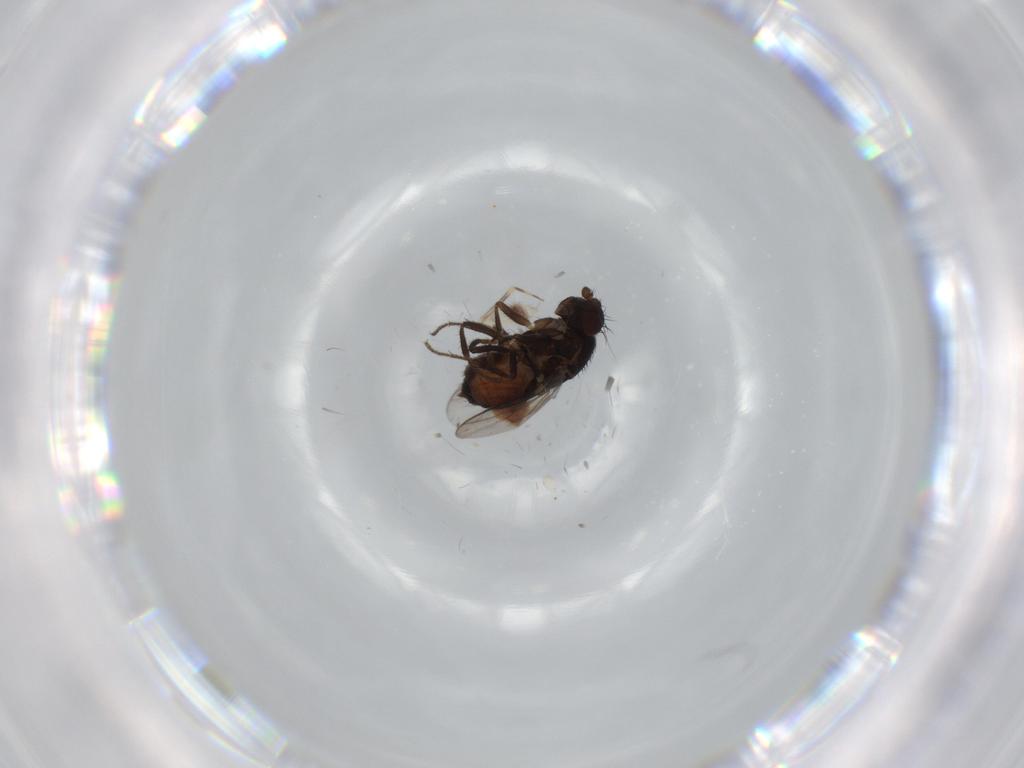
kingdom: Animalia
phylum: Arthropoda
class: Insecta
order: Diptera
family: Sphaeroceridae
